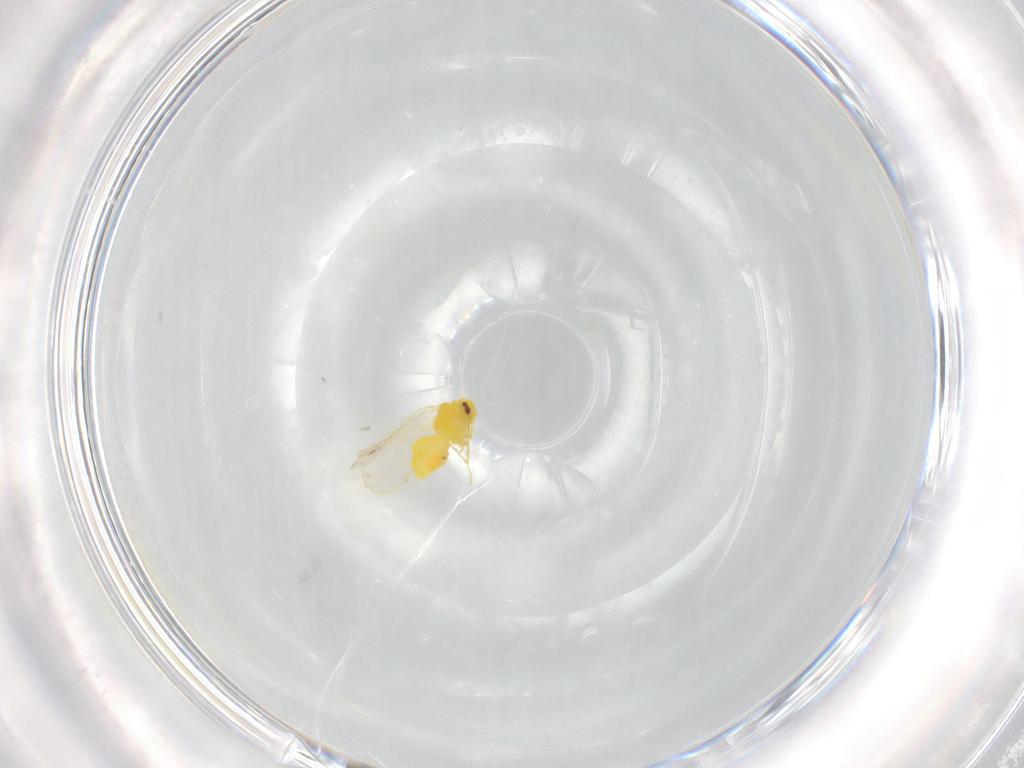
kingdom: Animalia
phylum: Arthropoda
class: Insecta
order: Hemiptera
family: Aleyrodidae
